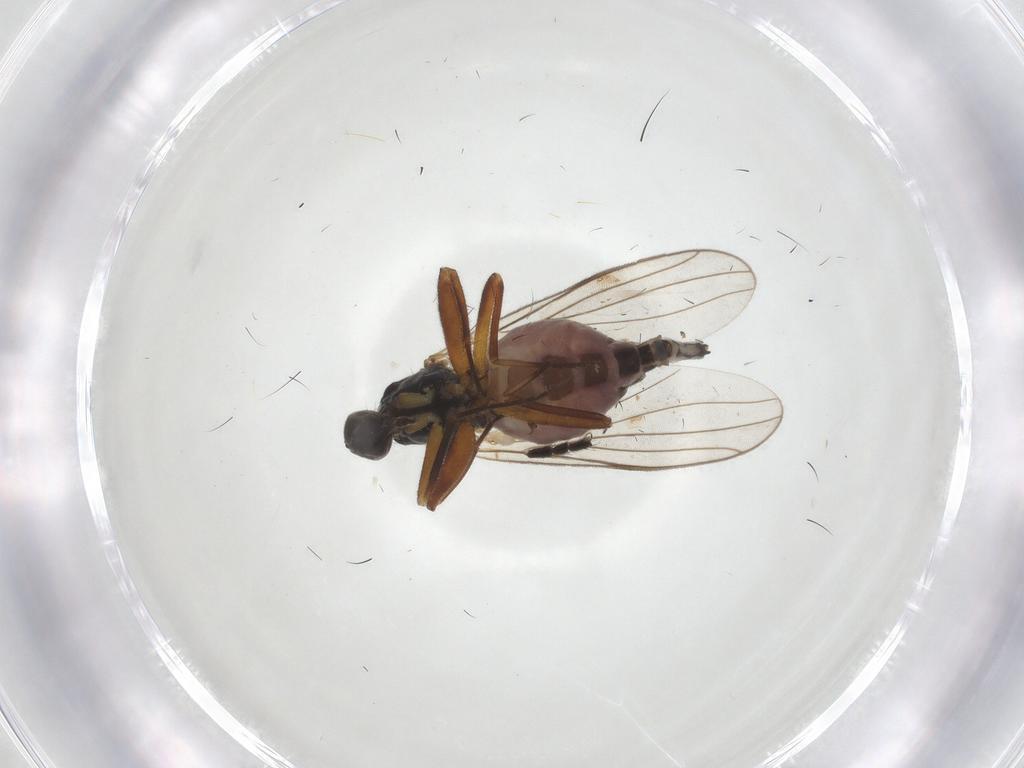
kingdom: Animalia
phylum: Arthropoda
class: Insecta
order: Diptera
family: Hybotidae
